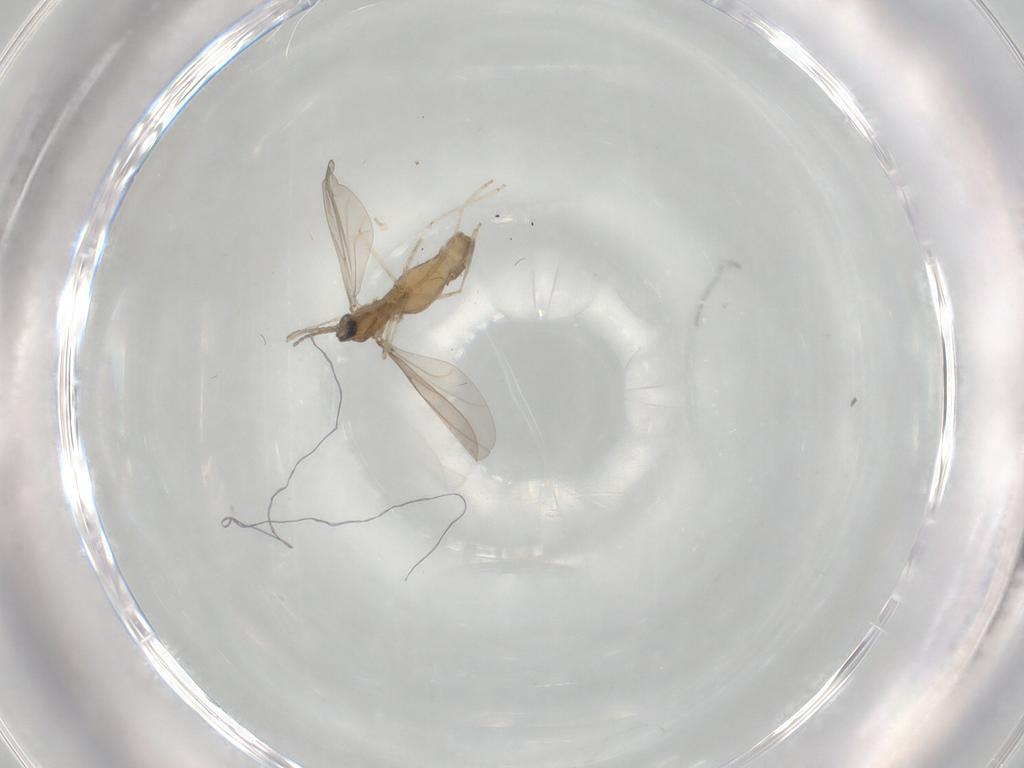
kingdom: Animalia
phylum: Arthropoda
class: Insecta
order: Diptera
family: Cecidomyiidae
